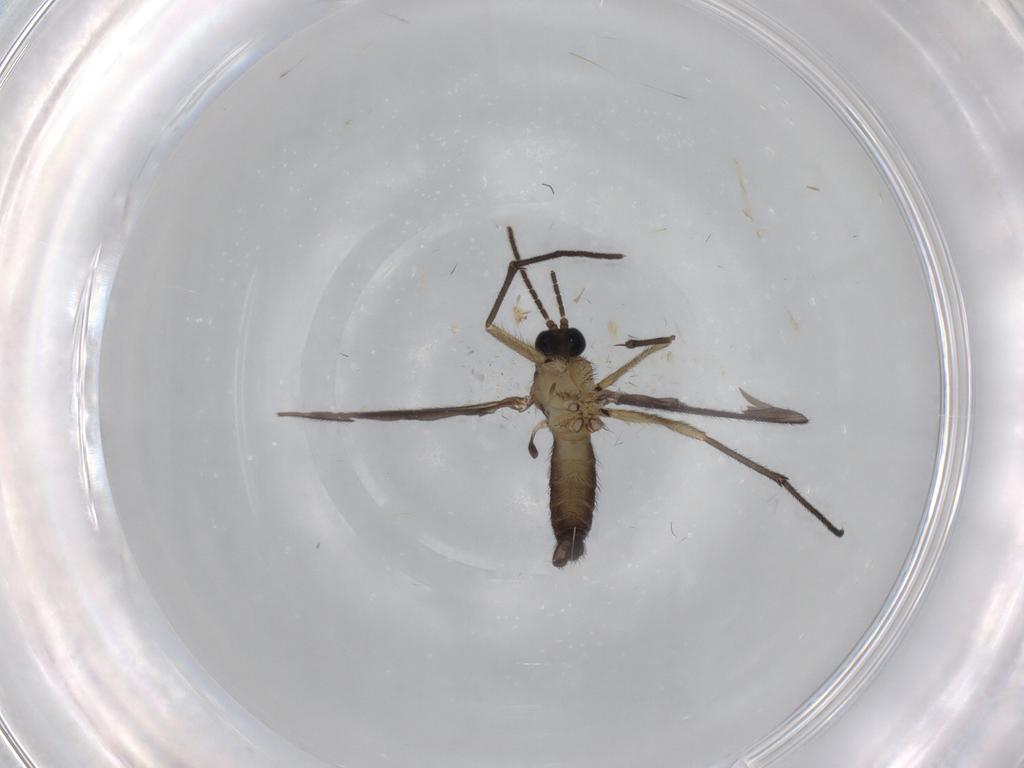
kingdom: Animalia
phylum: Arthropoda
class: Insecta
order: Diptera
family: Sciaridae
